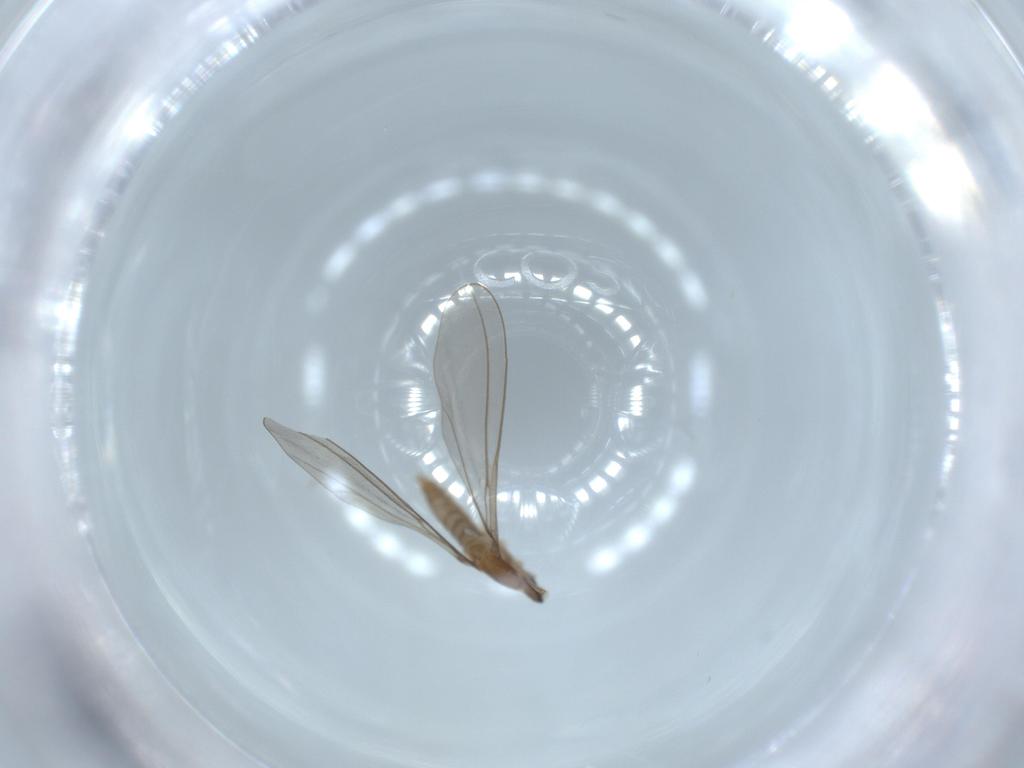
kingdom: Animalia
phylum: Arthropoda
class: Insecta
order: Diptera
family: Cecidomyiidae
